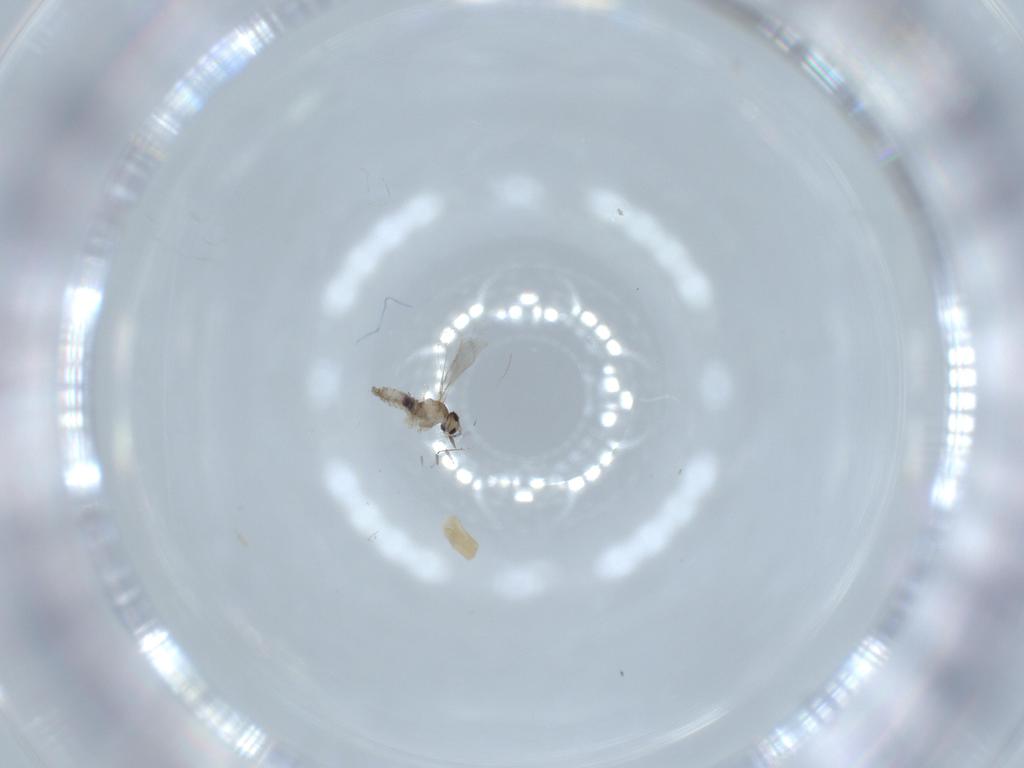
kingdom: Animalia
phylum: Arthropoda
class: Insecta
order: Diptera
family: Cecidomyiidae
